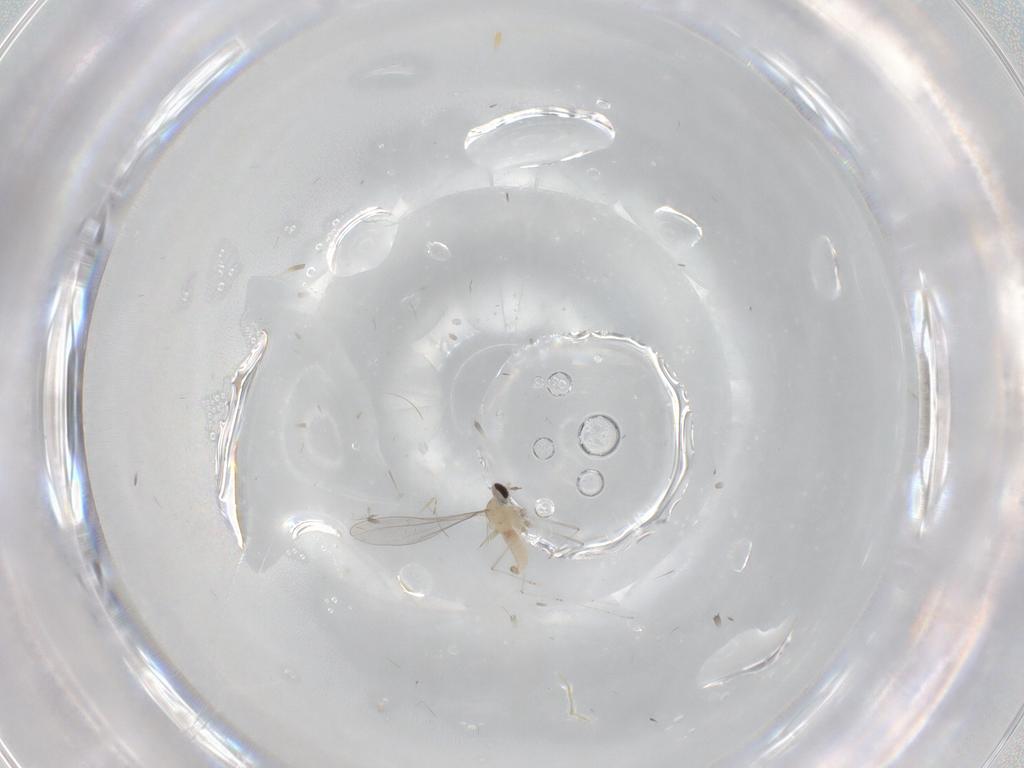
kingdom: Animalia
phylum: Arthropoda
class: Insecta
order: Diptera
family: Cecidomyiidae
